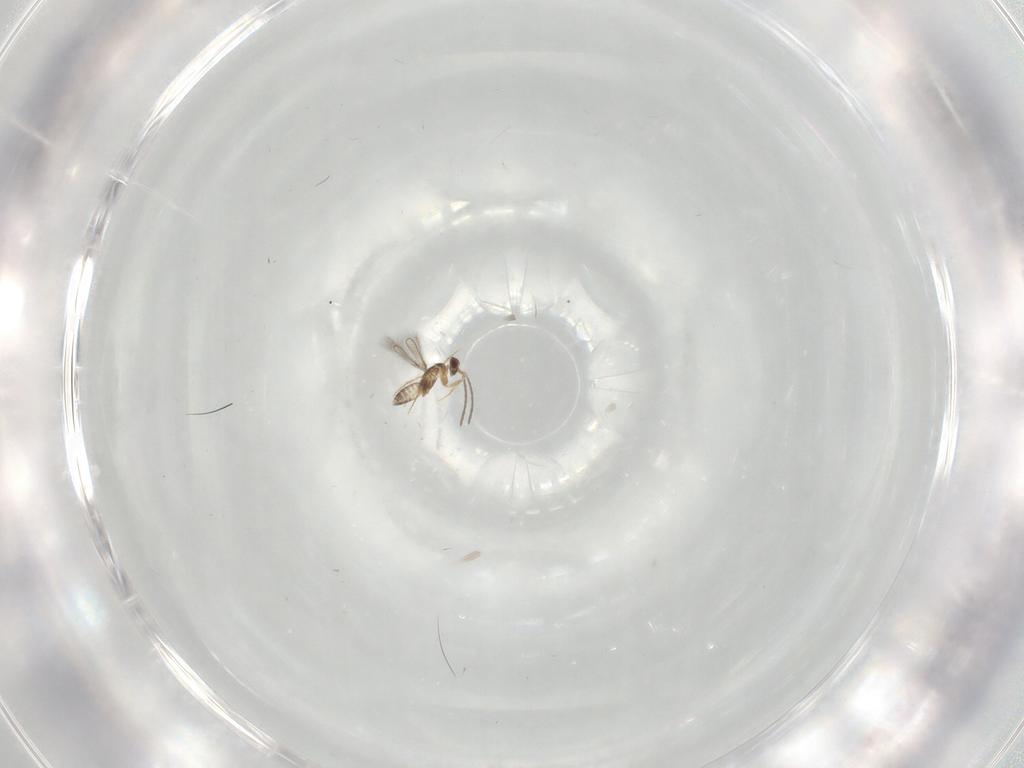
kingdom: Animalia
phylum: Arthropoda
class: Insecta
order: Hymenoptera
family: Mymaridae
